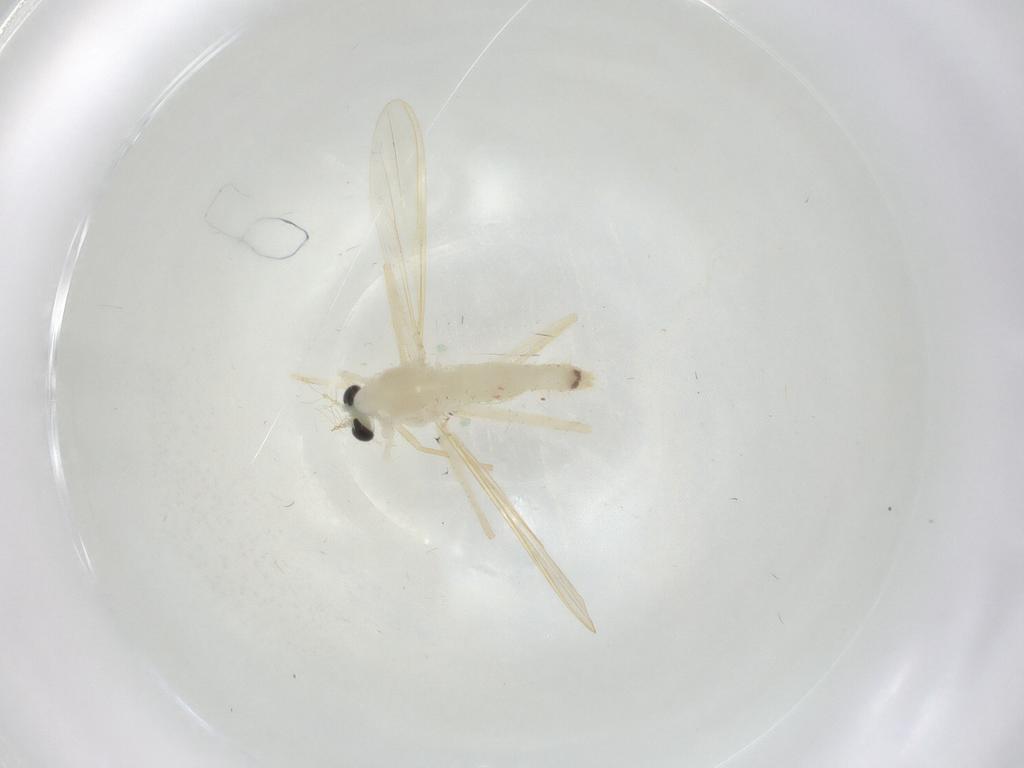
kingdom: Animalia
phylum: Arthropoda
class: Insecta
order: Diptera
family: Chironomidae
